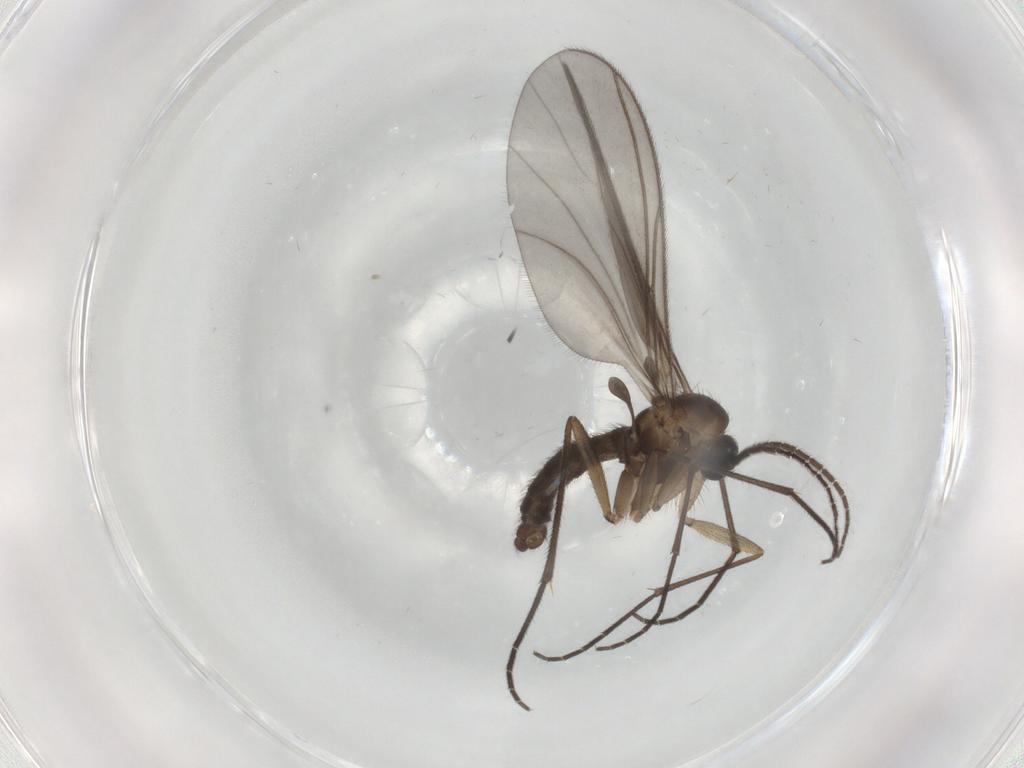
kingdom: Animalia
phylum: Arthropoda
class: Insecta
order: Diptera
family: Sciaridae
